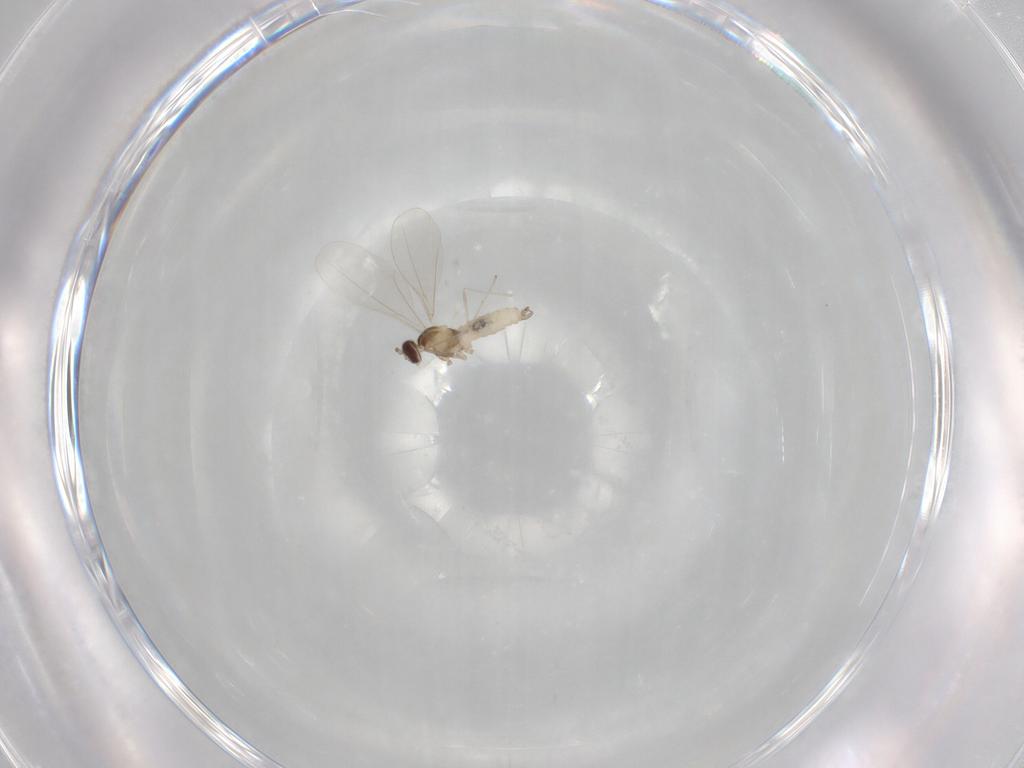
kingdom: Animalia
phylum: Arthropoda
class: Insecta
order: Diptera
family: Cecidomyiidae
